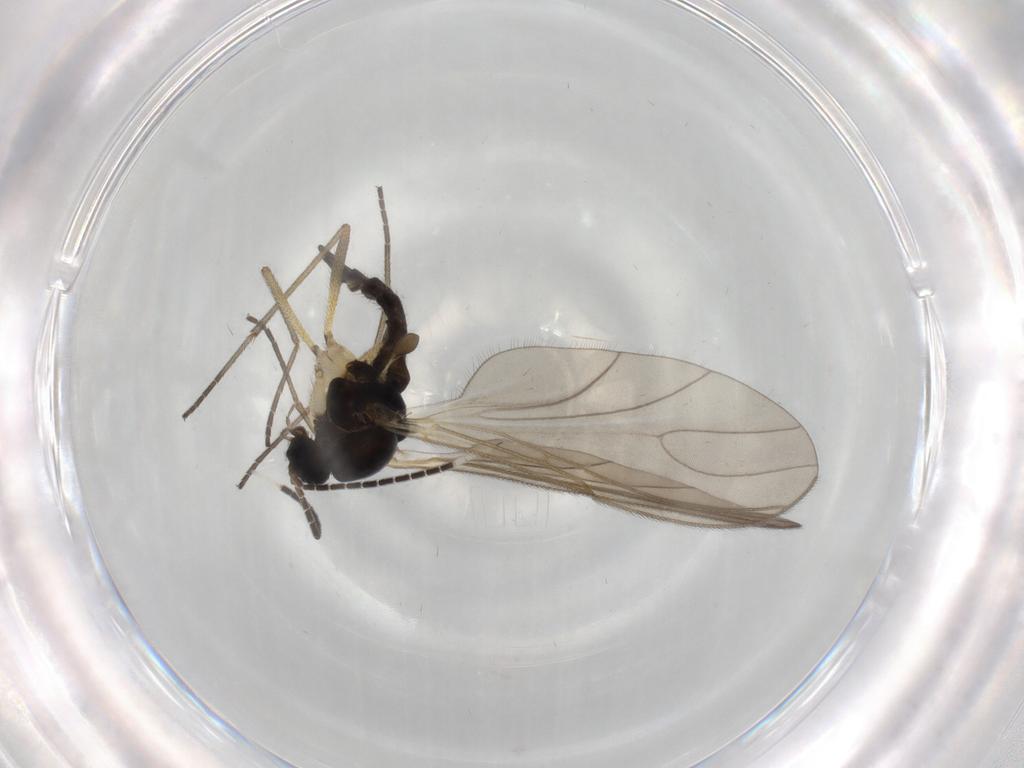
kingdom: Animalia
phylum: Arthropoda
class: Insecta
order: Diptera
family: Sciaridae
